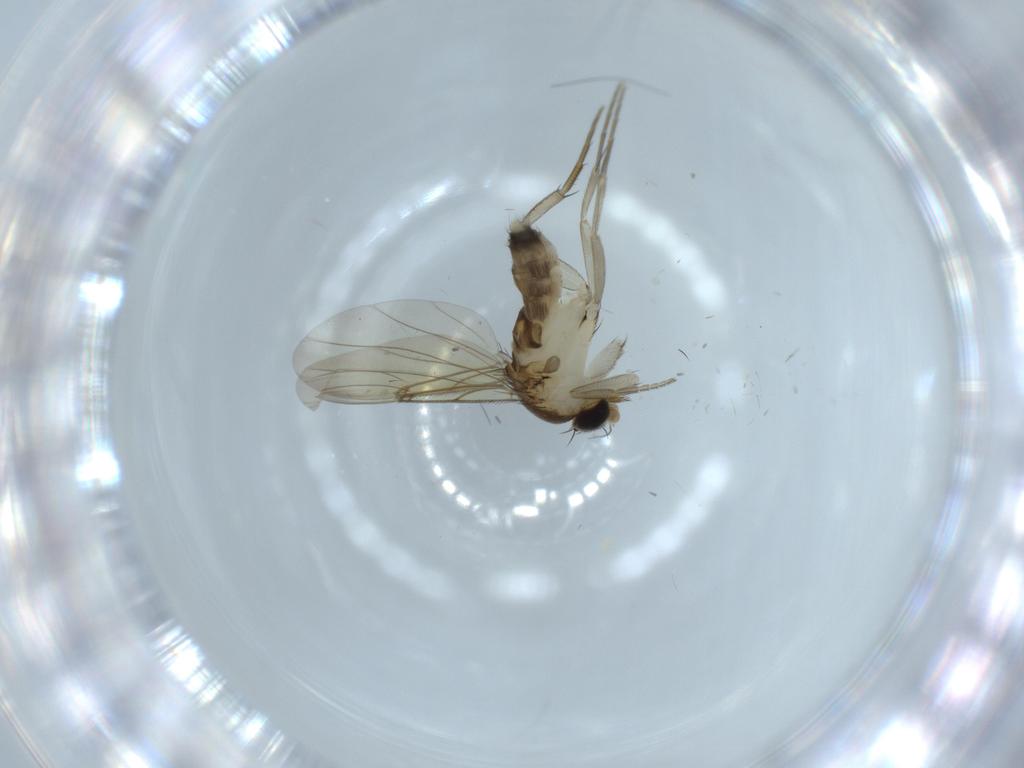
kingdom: Animalia
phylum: Arthropoda
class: Insecta
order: Diptera
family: Phoridae
